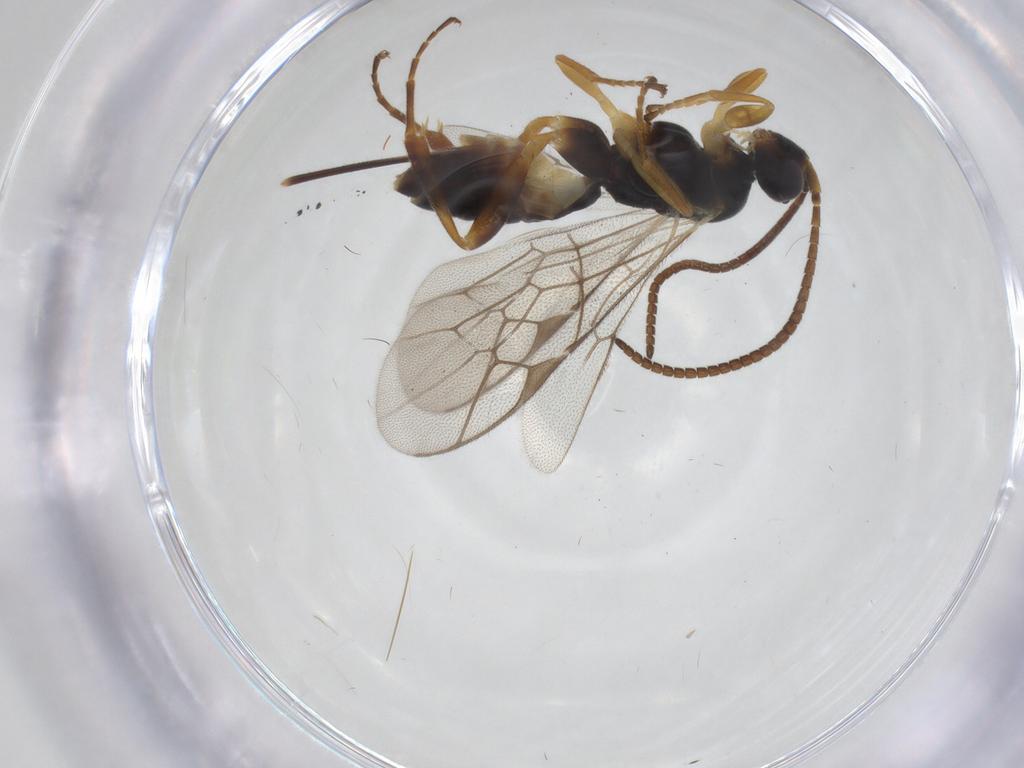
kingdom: Animalia
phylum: Arthropoda
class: Insecta
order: Hymenoptera
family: Ichneumonidae
